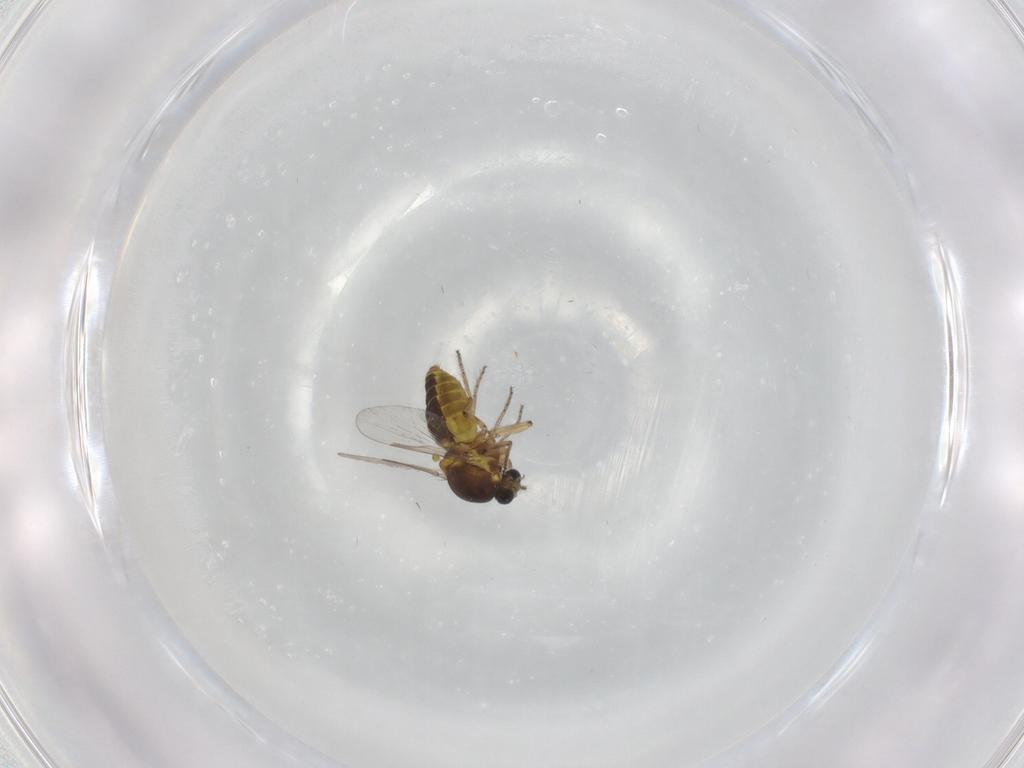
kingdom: Animalia
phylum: Arthropoda
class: Insecta
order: Diptera
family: Ceratopogonidae
